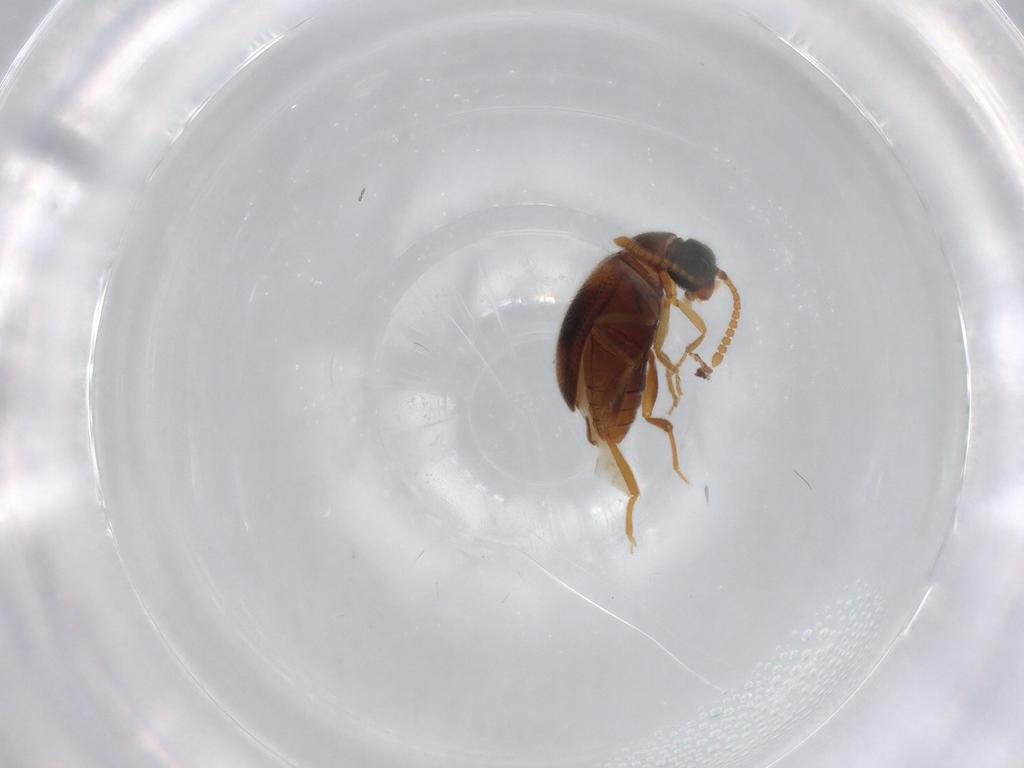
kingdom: Animalia
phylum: Arthropoda
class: Insecta
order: Coleoptera
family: Aderidae
